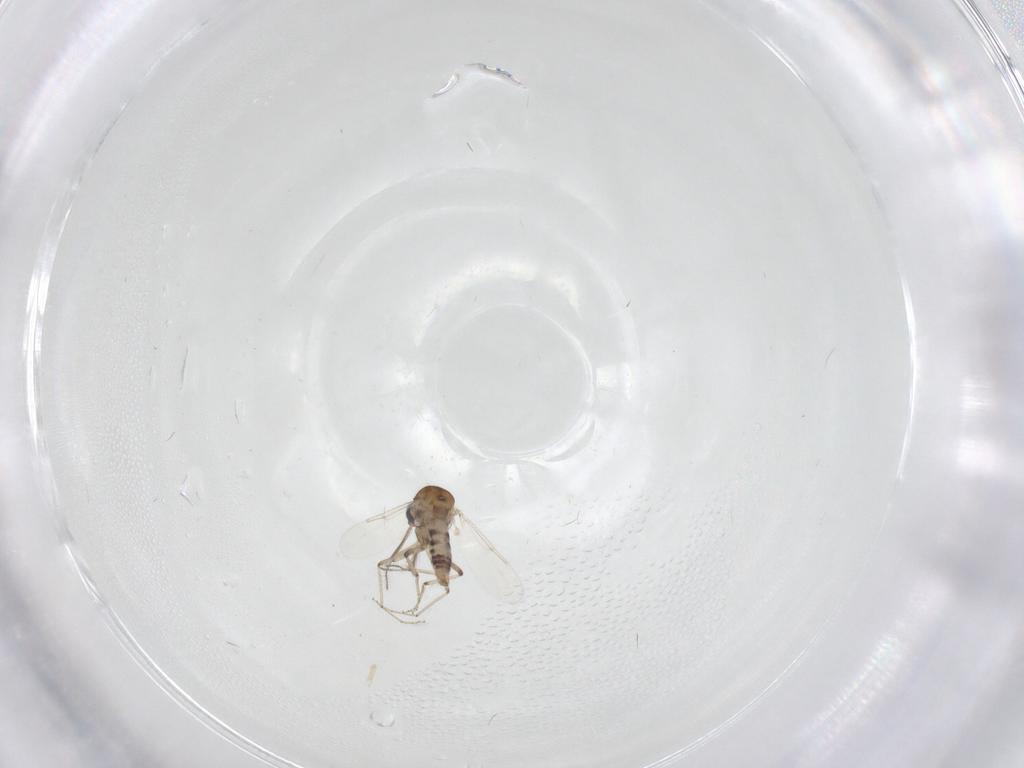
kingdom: Animalia
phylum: Arthropoda
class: Insecta
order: Diptera
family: Ceratopogonidae
